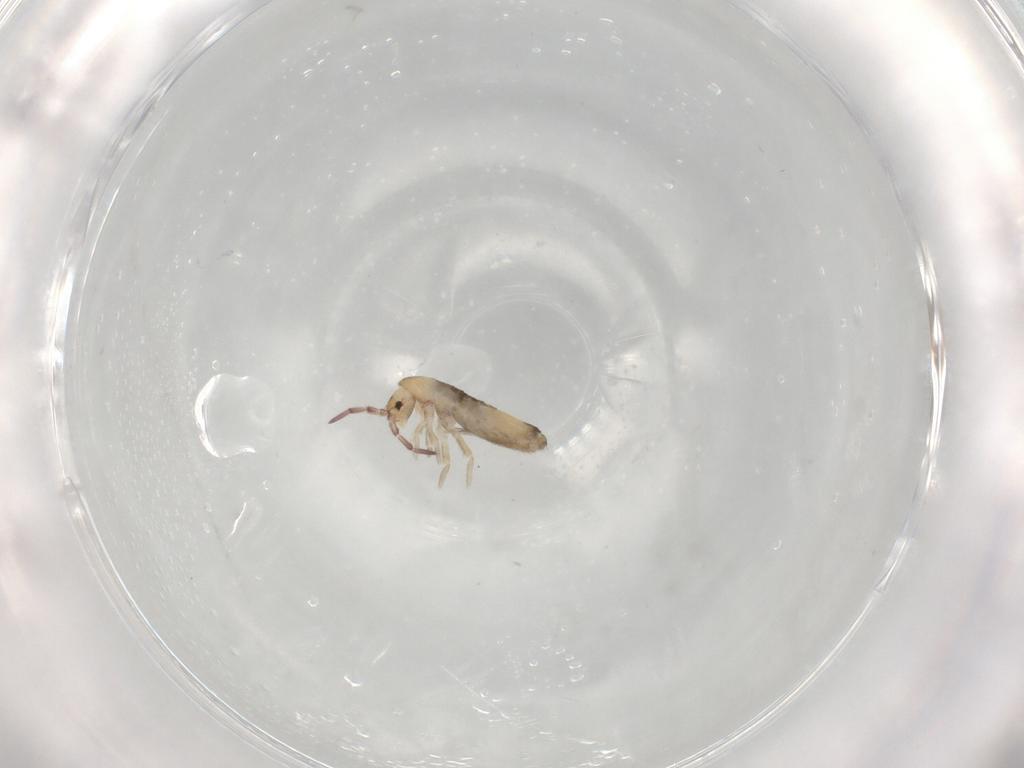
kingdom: Animalia
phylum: Arthropoda
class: Collembola
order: Entomobryomorpha
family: Entomobryidae
